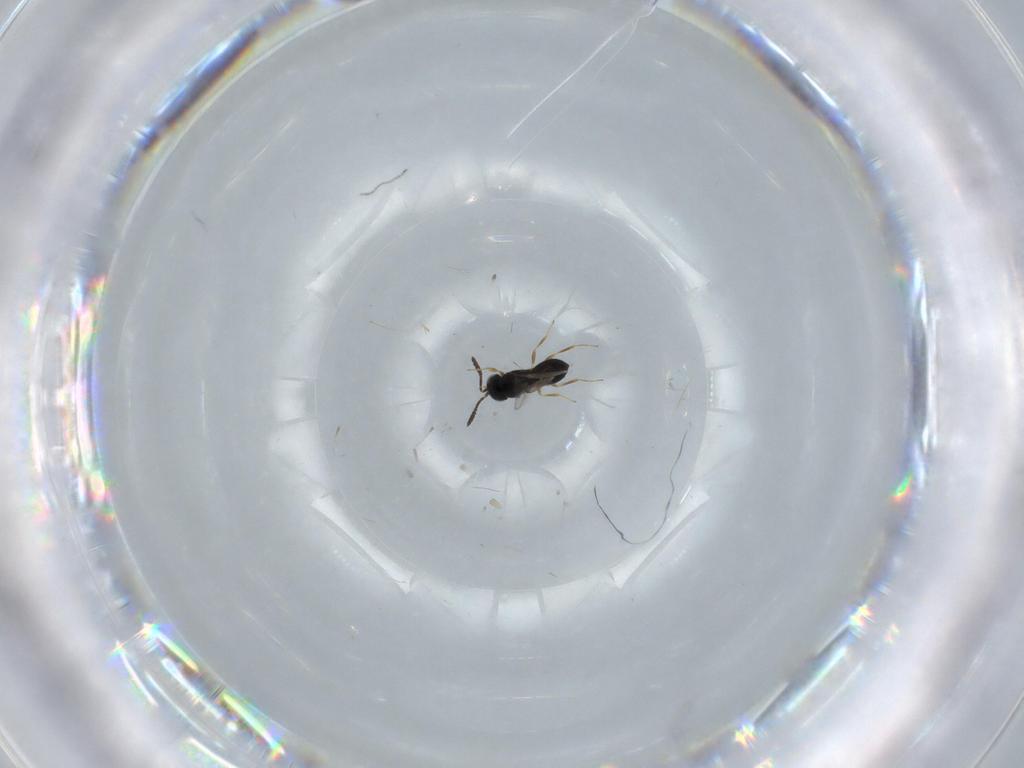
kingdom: Animalia
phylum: Arthropoda
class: Insecta
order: Hymenoptera
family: Scelionidae
